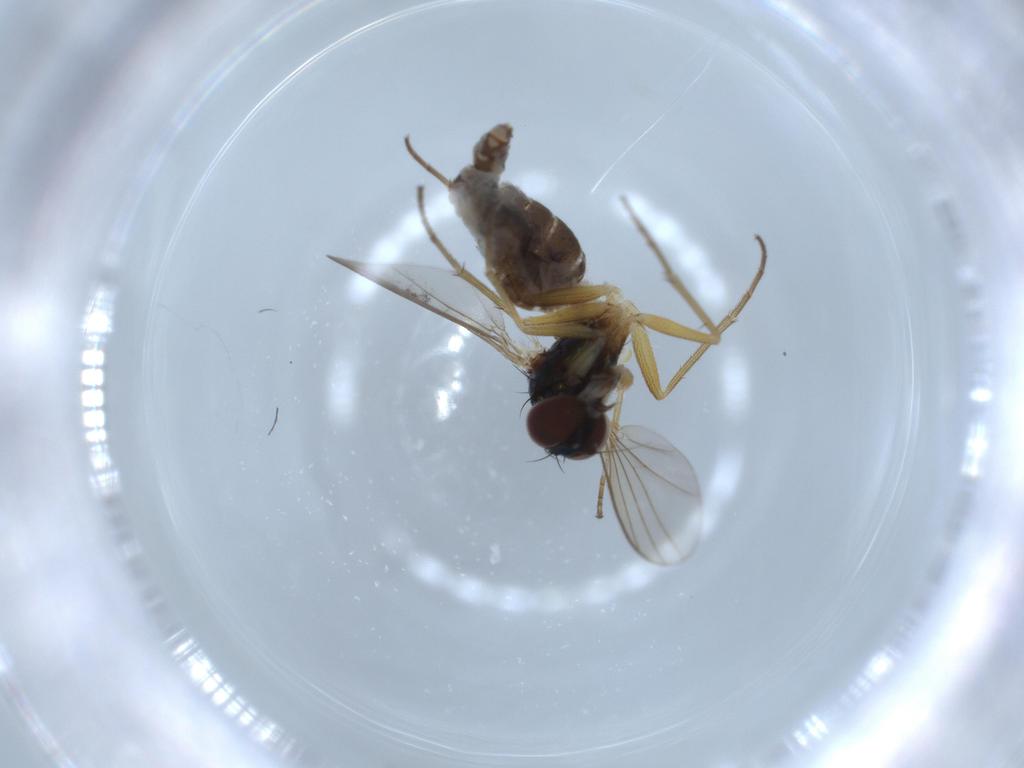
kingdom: Animalia
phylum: Arthropoda
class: Insecta
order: Diptera
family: Dolichopodidae
